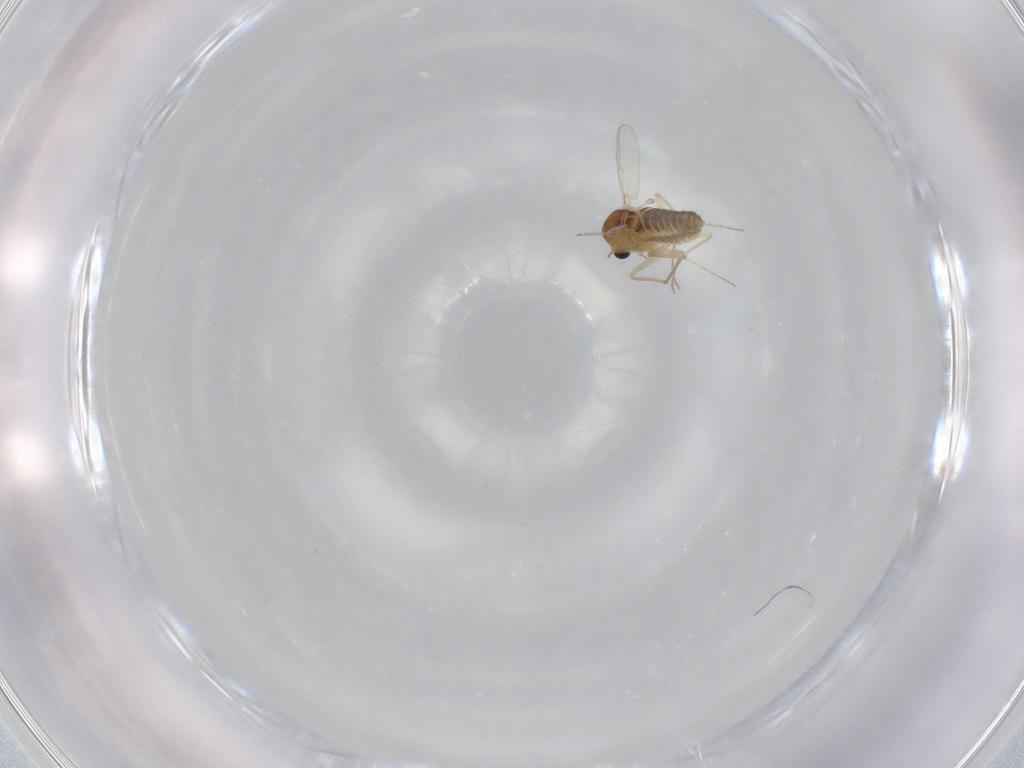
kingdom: Animalia
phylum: Arthropoda
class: Insecta
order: Diptera
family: Chironomidae
